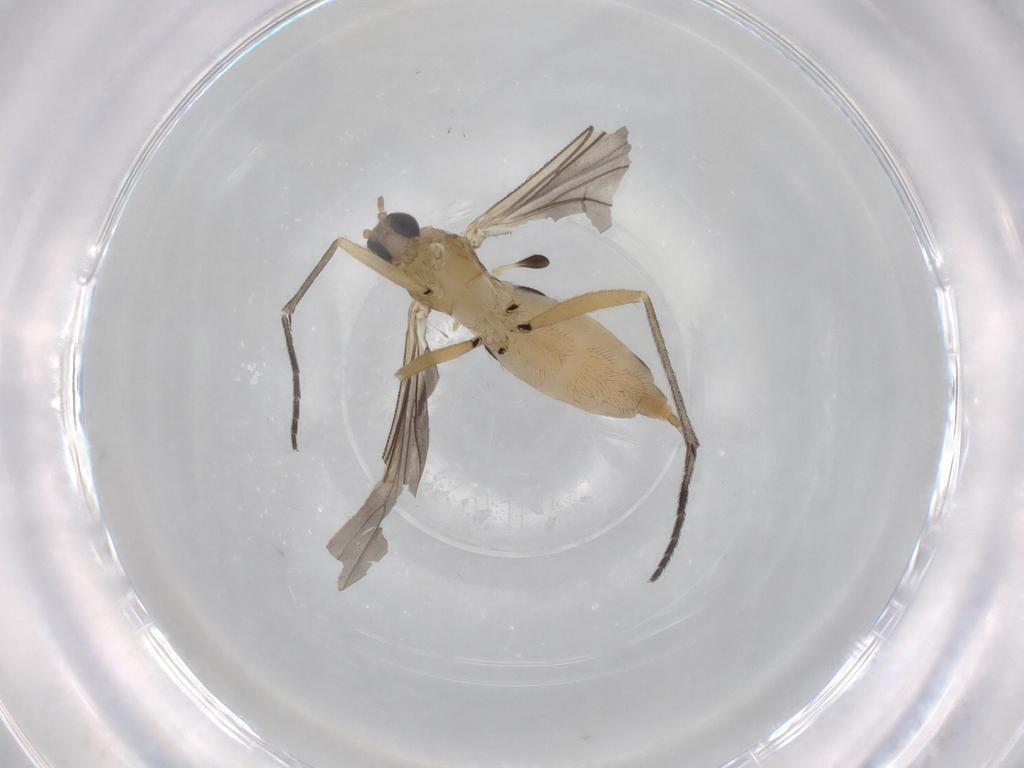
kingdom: Animalia
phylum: Arthropoda
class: Insecta
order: Diptera
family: Sciaridae
